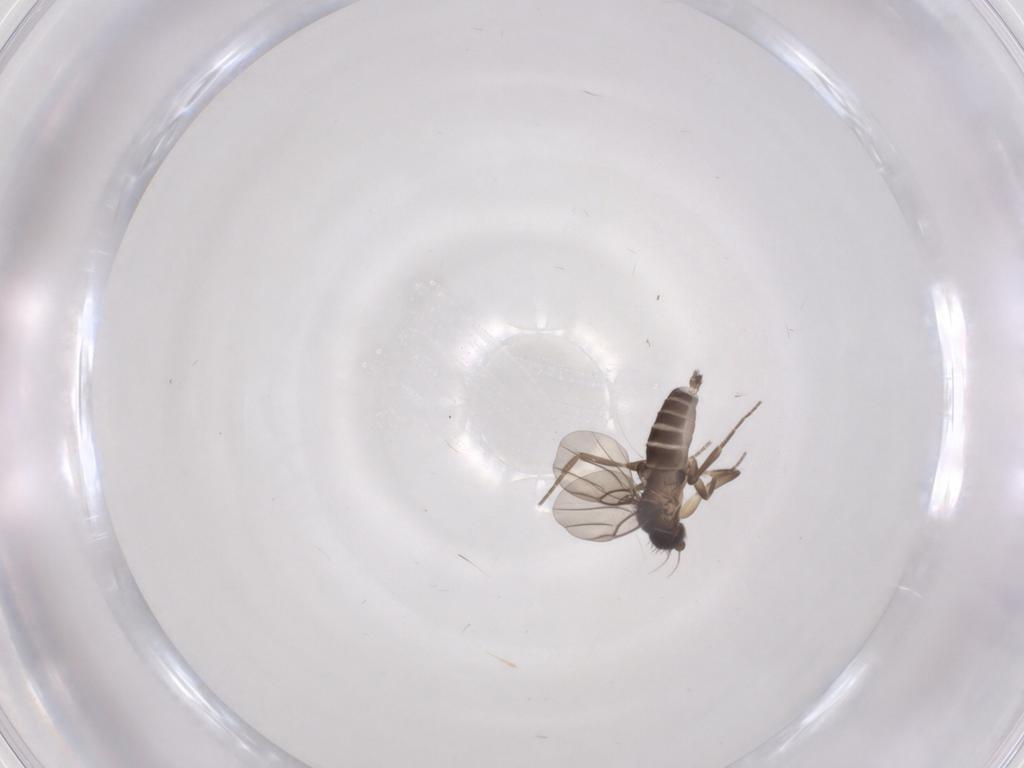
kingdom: Animalia
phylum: Arthropoda
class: Insecta
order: Diptera
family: Phoridae
